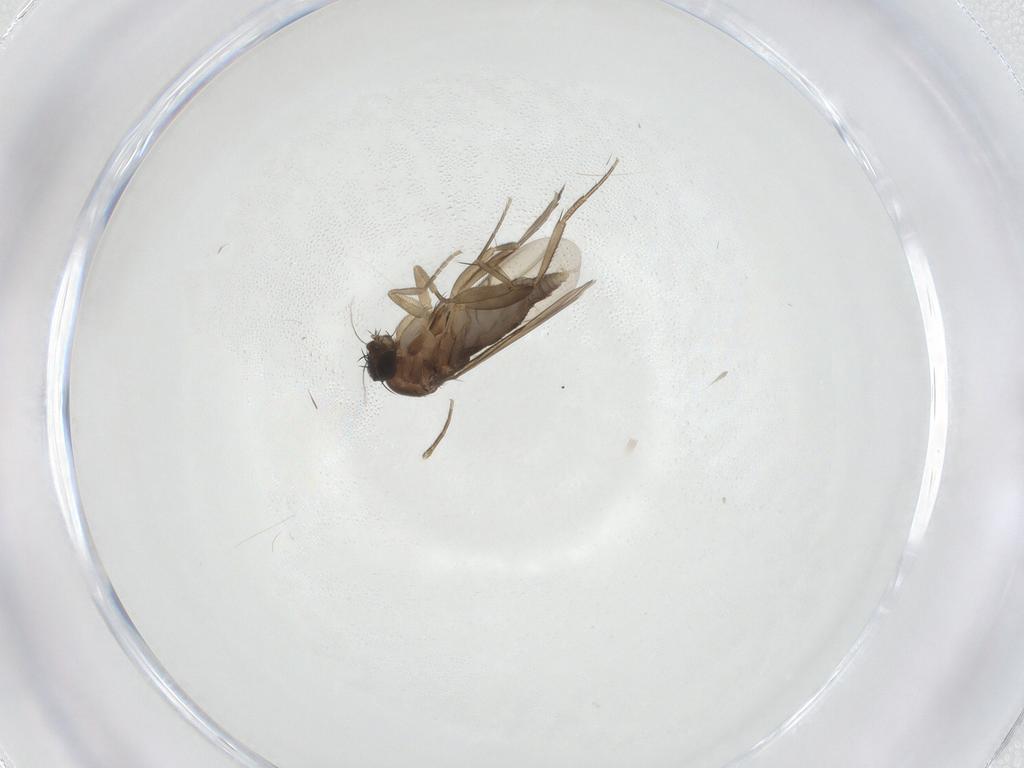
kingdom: Animalia
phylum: Arthropoda
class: Insecta
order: Diptera
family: Phoridae
